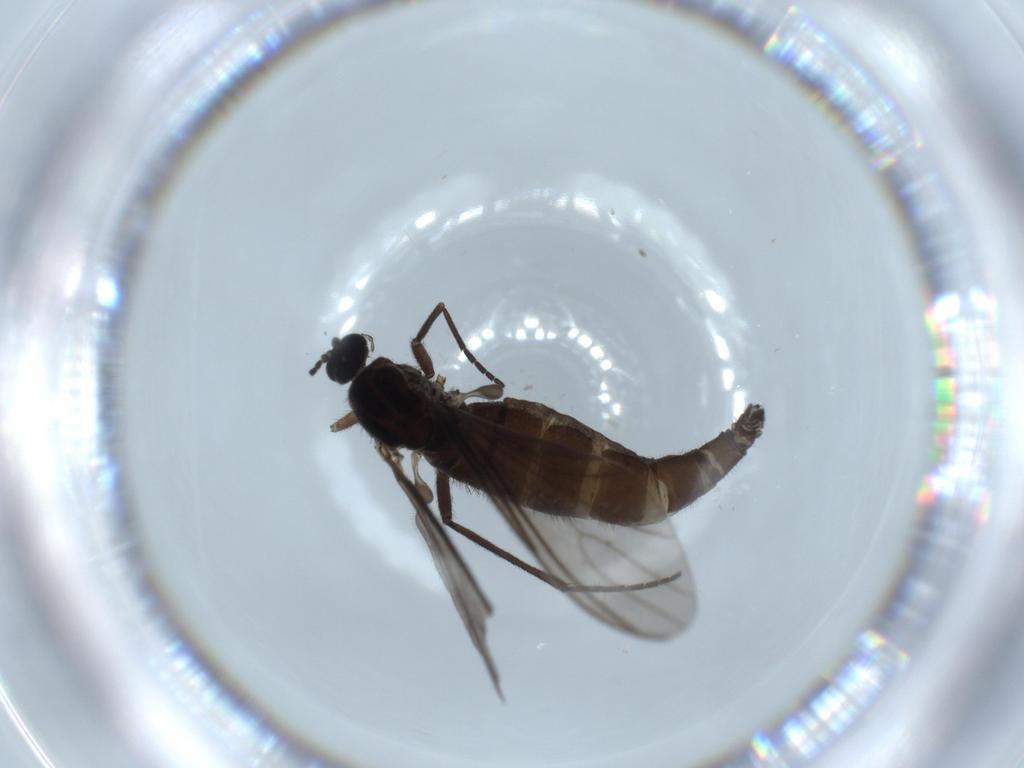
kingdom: Animalia
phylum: Arthropoda
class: Insecta
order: Diptera
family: Sciaridae
